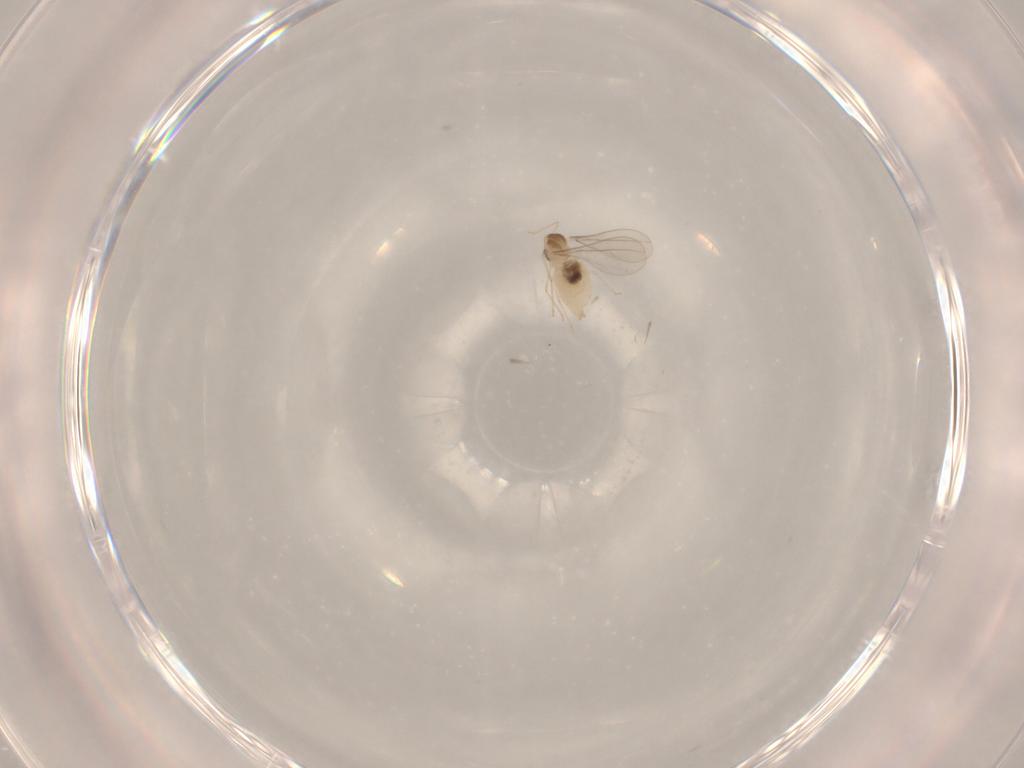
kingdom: Animalia
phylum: Arthropoda
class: Insecta
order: Diptera
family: Cecidomyiidae
